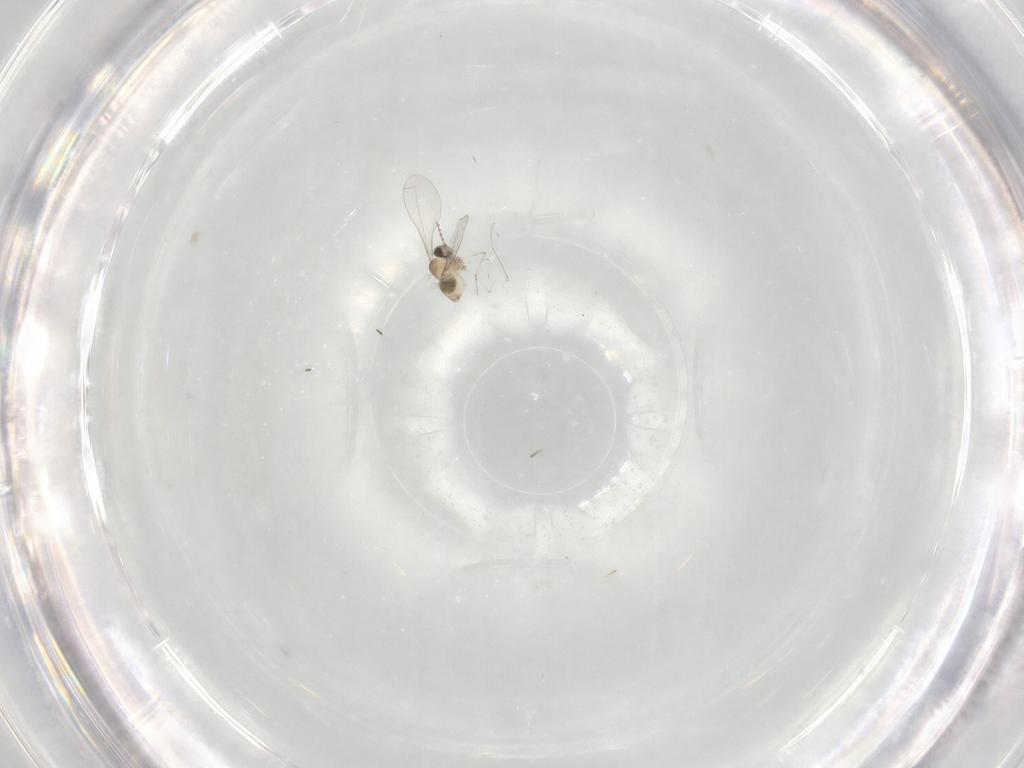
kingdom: Animalia
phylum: Arthropoda
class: Insecta
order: Diptera
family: Cecidomyiidae
